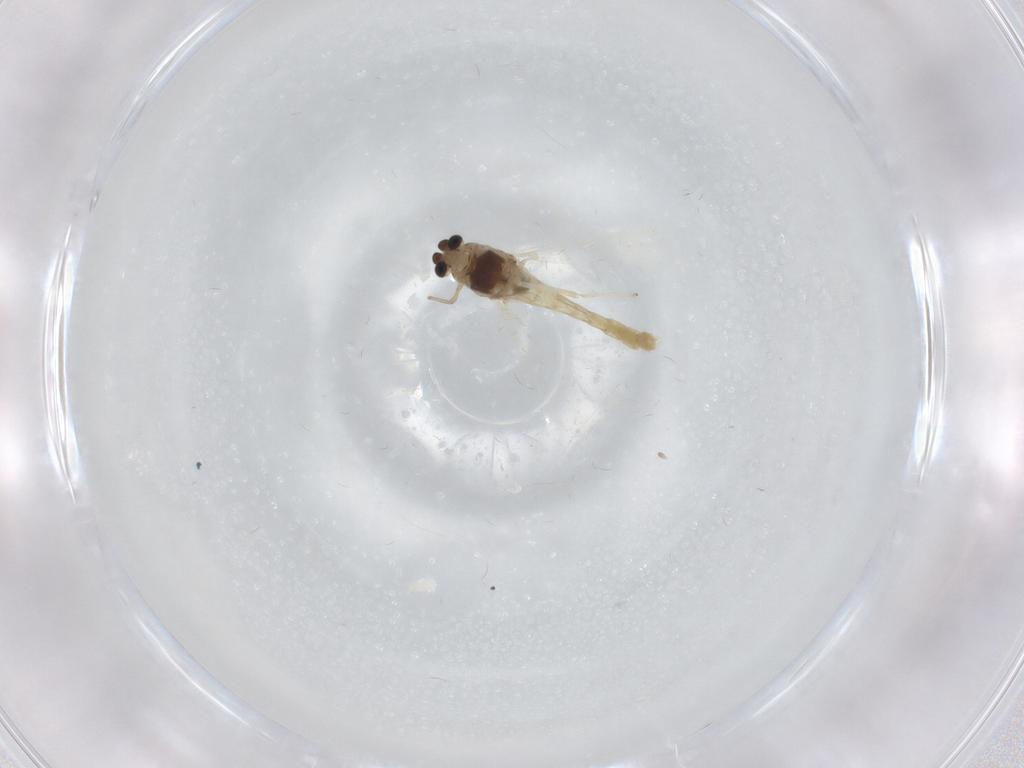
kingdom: Animalia
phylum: Arthropoda
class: Insecta
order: Diptera
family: Chironomidae
